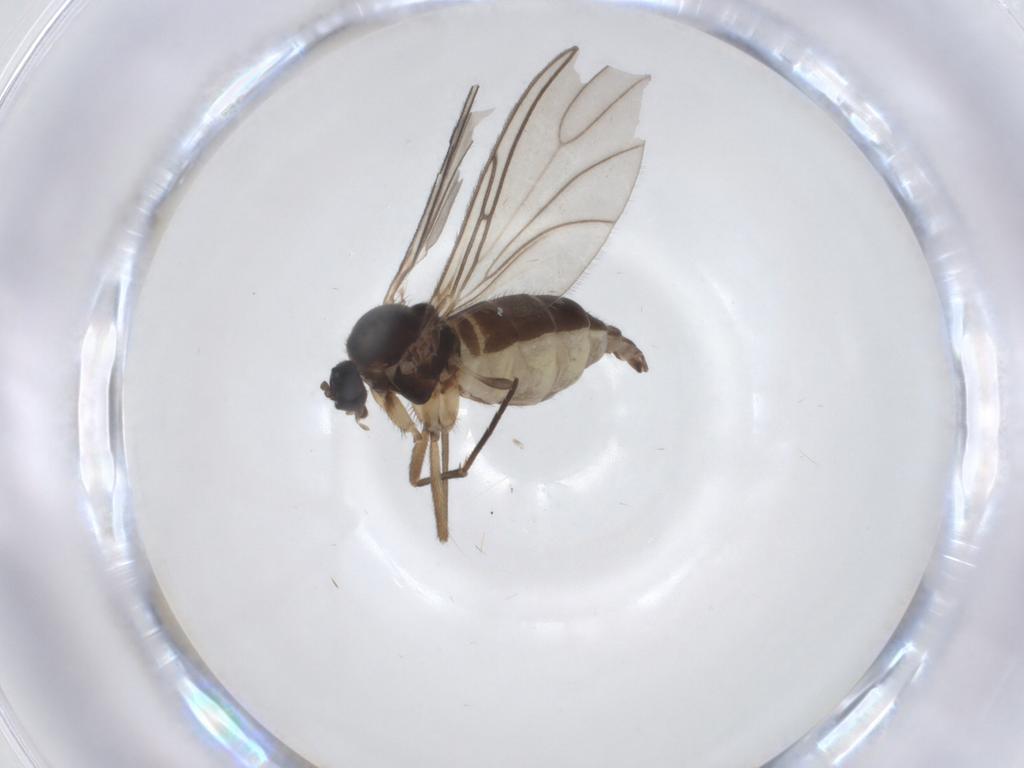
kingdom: Animalia
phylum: Arthropoda
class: Insecta
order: Diptera
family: Sciaridae
